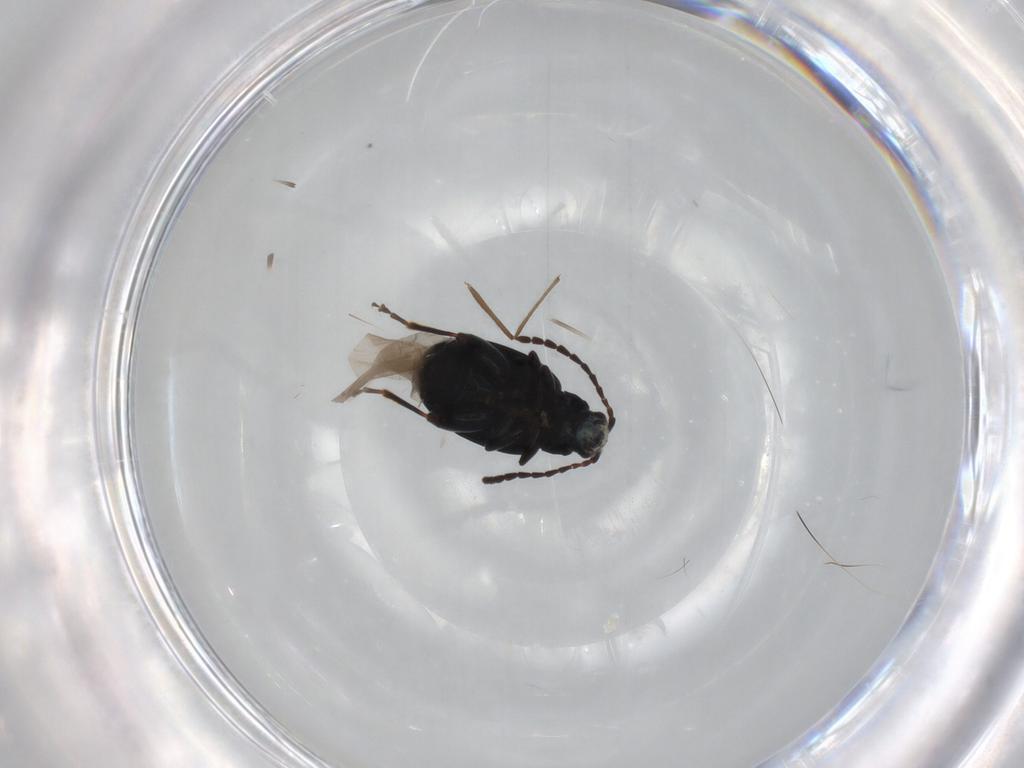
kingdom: Animalia
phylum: Arthropoda
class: Insecta
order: Coleoptera
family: Chrysomelidae
